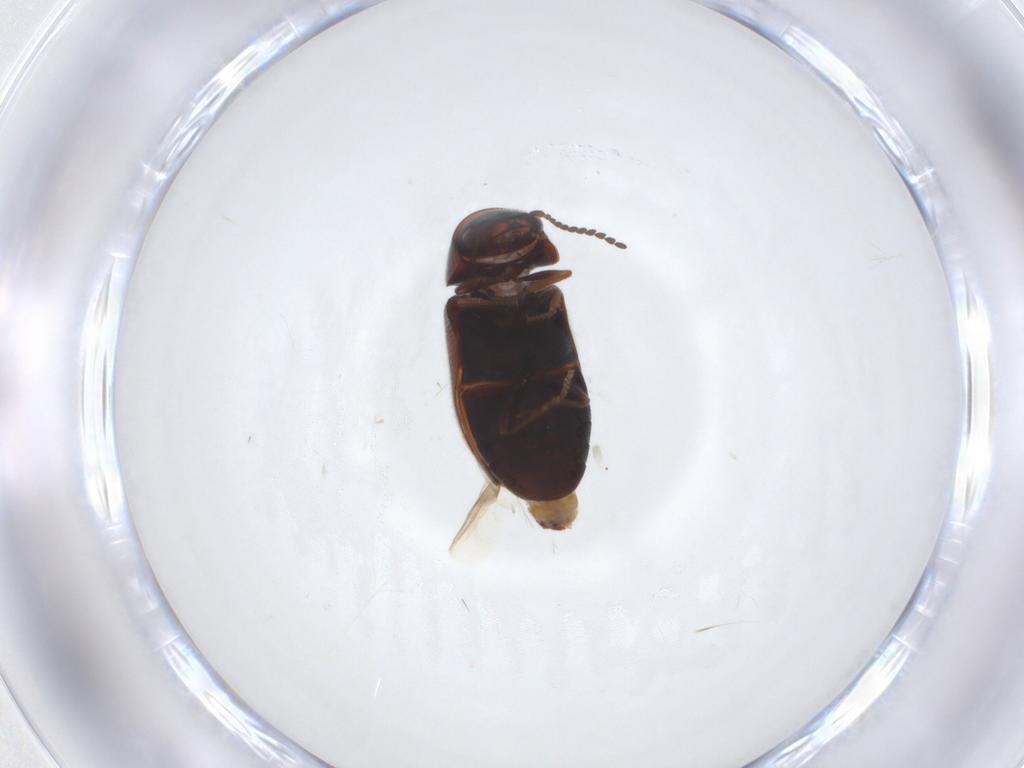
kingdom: Animalia
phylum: Arthropoda
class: Insecta
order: Coleoptera
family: Ptinidae
